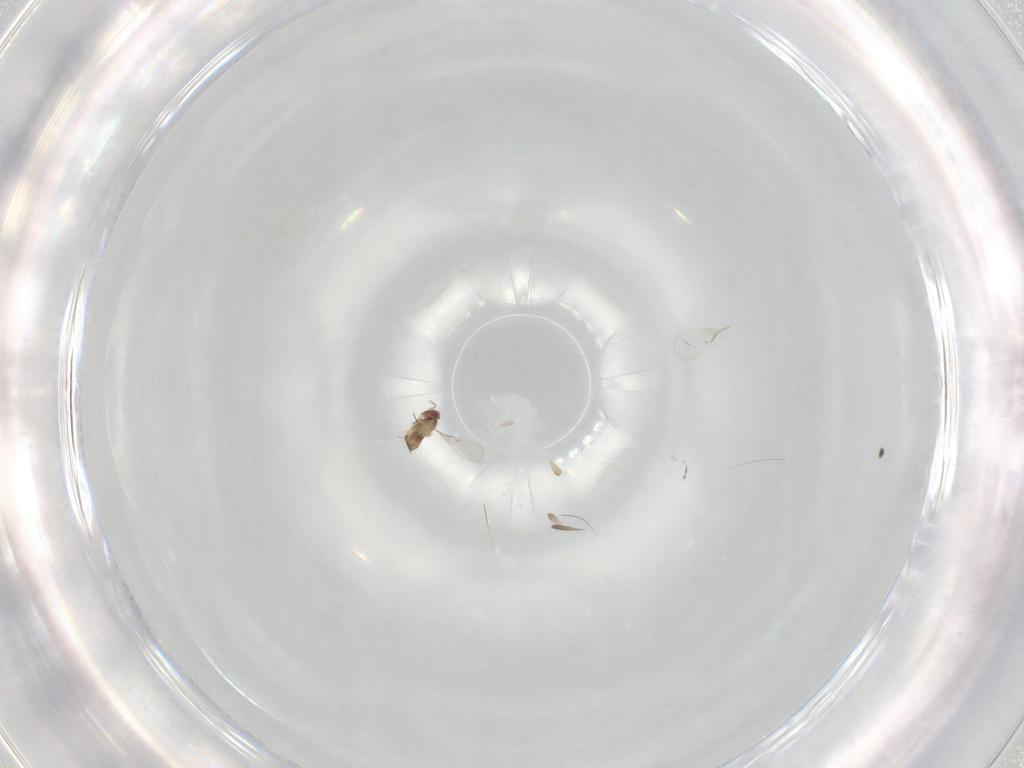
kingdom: Animalia
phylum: Arthropoda
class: Insecta
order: Hymenoptera
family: Trichogrammatidae
